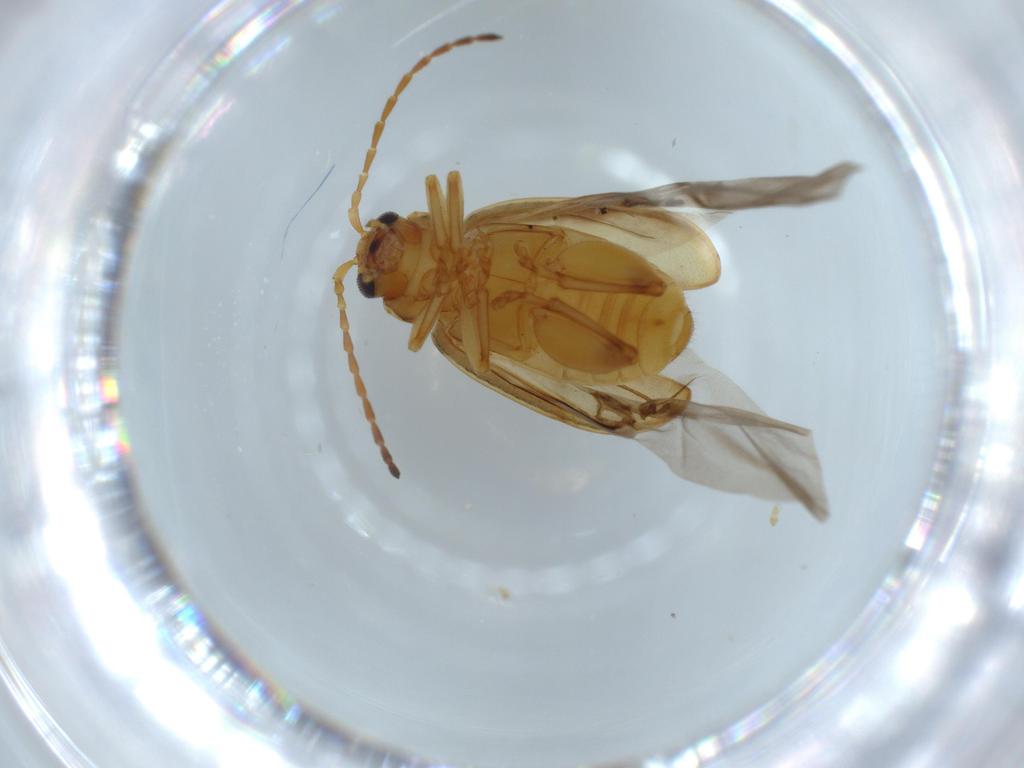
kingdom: Animalia
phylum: Arthropoda
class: Insecta
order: Coleoptera
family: Chrysomelidae
